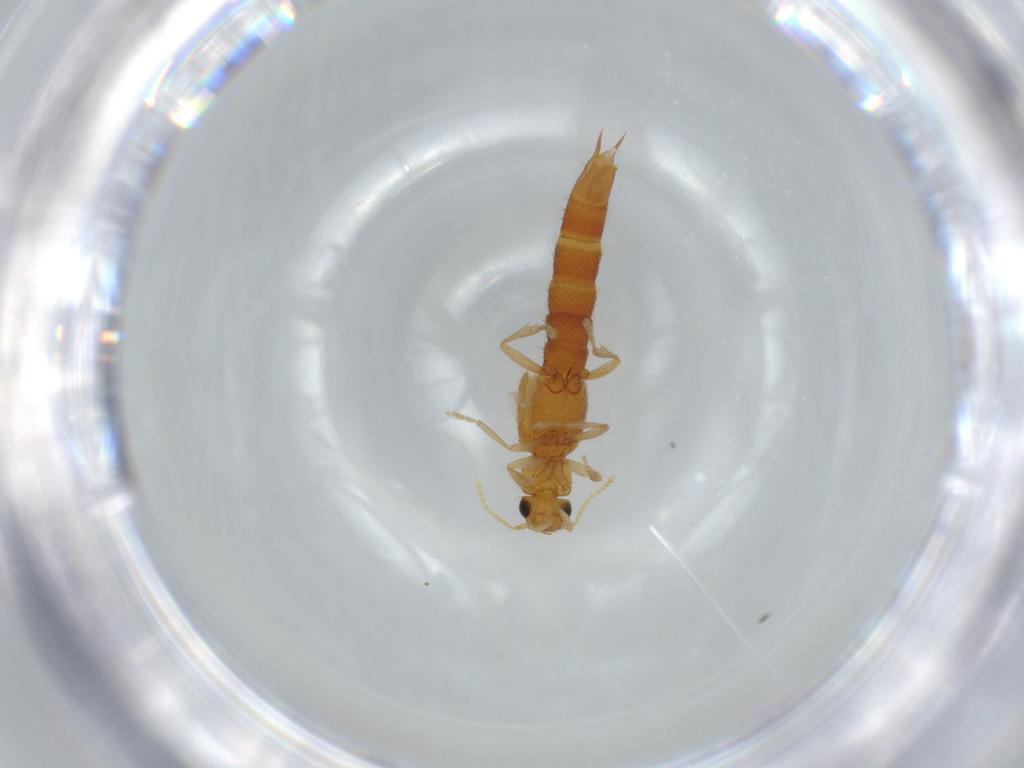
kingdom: Animalia
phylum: Arthropoda
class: Insecta
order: Coleoptera
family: Staphylinidae
